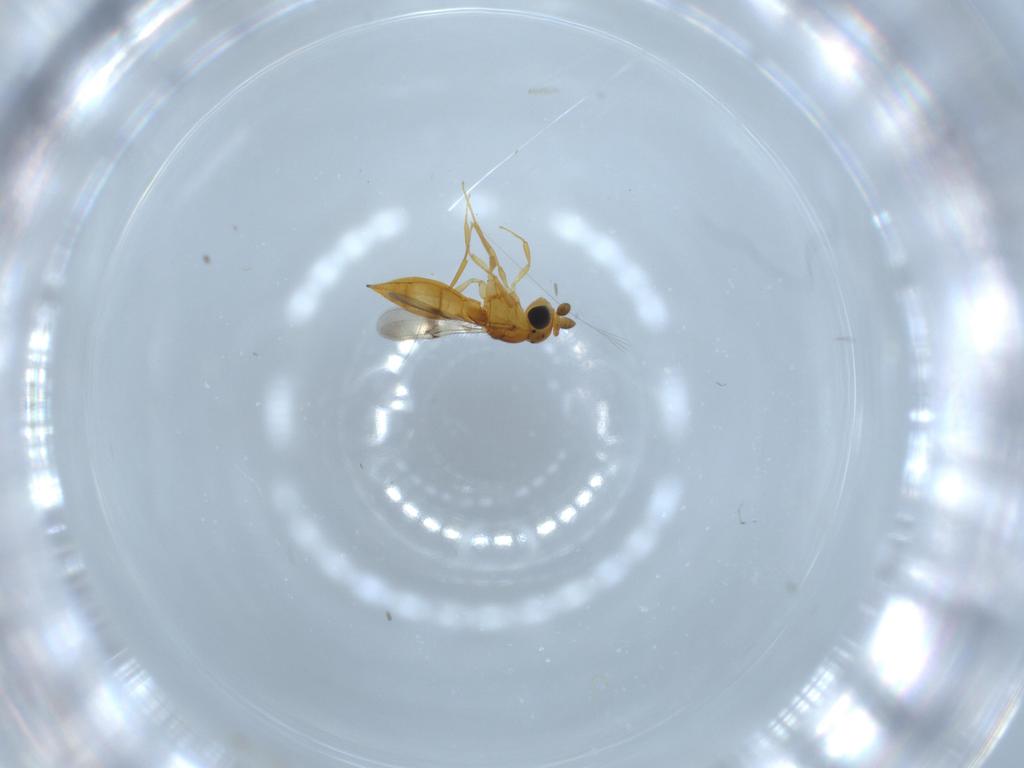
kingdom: Animalia
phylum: Arthropoda
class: Insecta
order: Hymenoptera
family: Scelionidae
